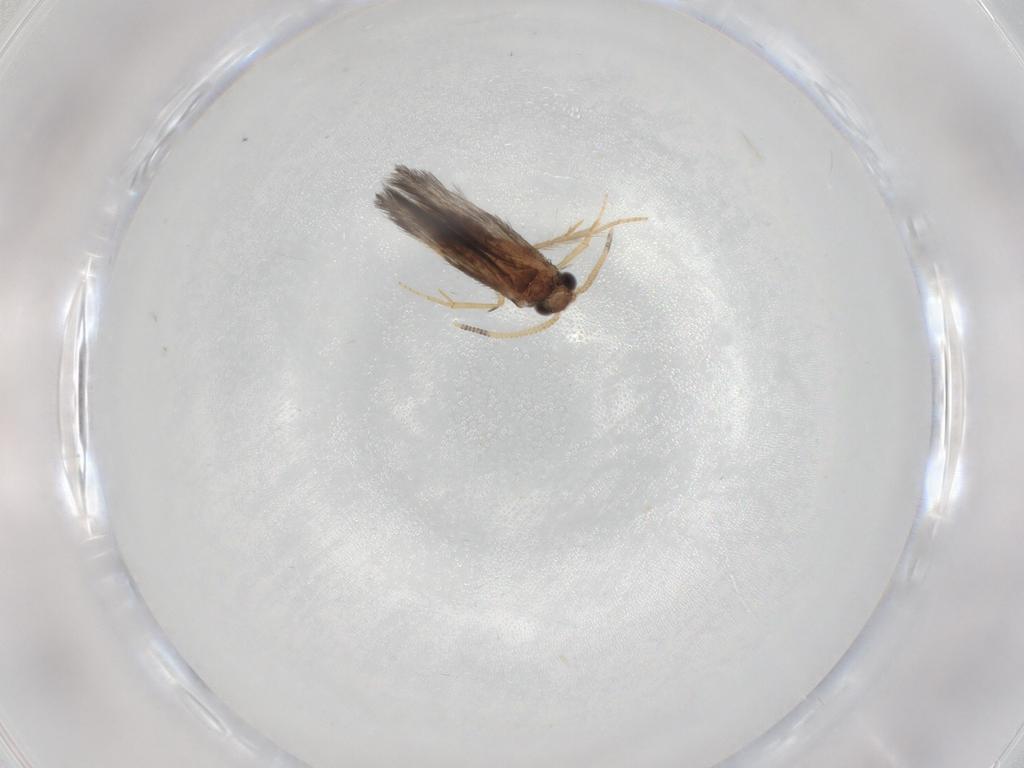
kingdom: Animalia
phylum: Arthropoda
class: Insecta
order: Trichoptera
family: Hydroptilidae
